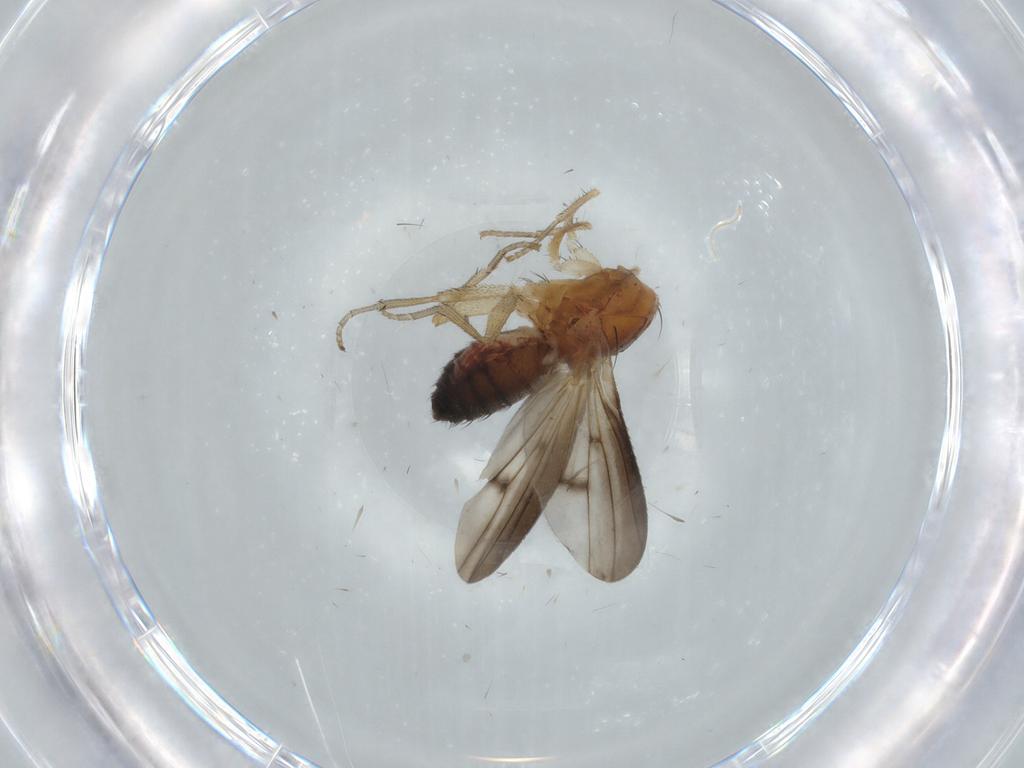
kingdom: Animalia
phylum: Arthropoda
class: Insecta
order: Diptera
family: Heleomyzidae
